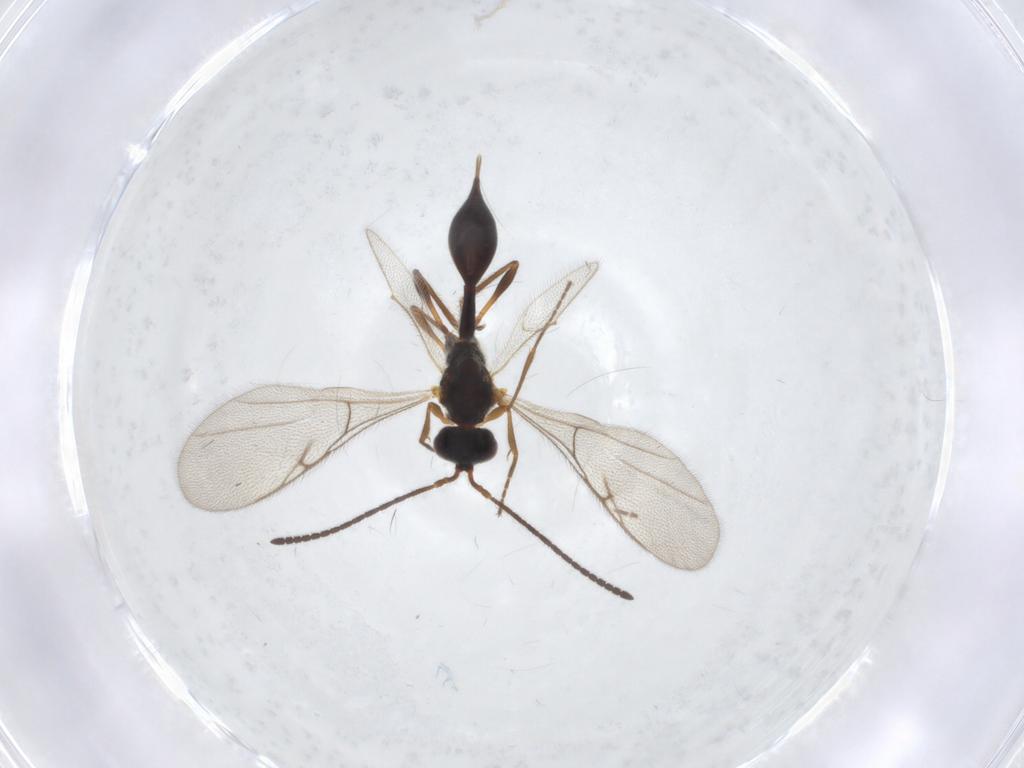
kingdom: Animalia
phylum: Arthropoda
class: Insecta
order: Hymenoptera
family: Diapriidae
